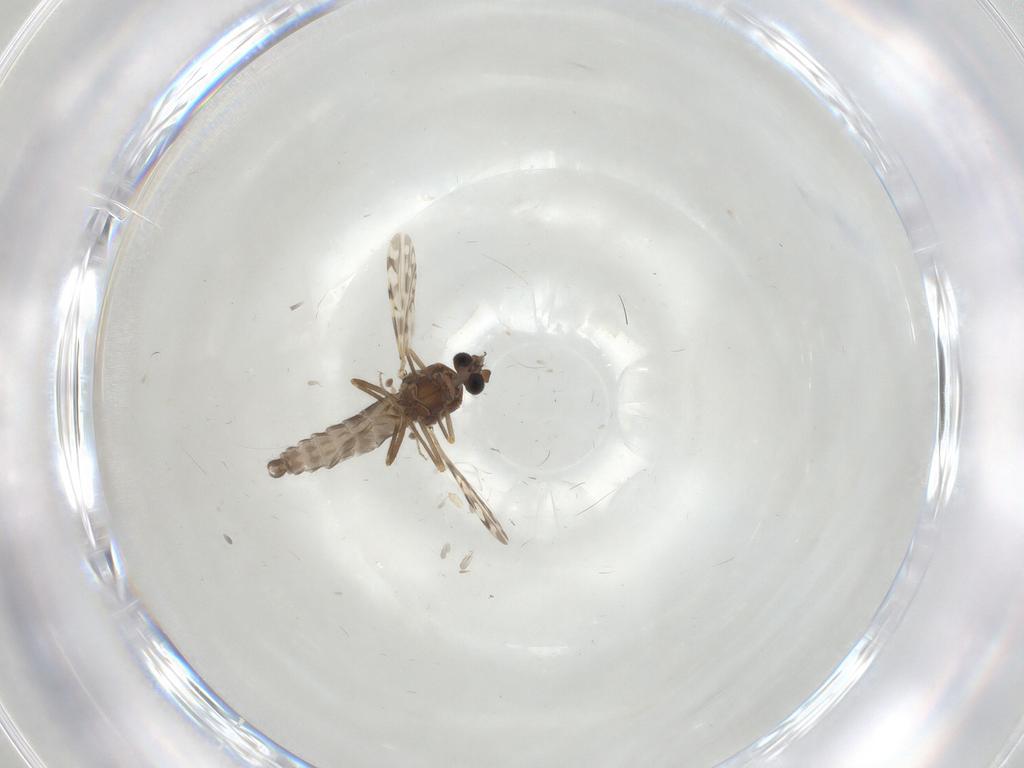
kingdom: Animalia
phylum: Arthropoda
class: Insecta
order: Diptera
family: Ceratopogonidae
